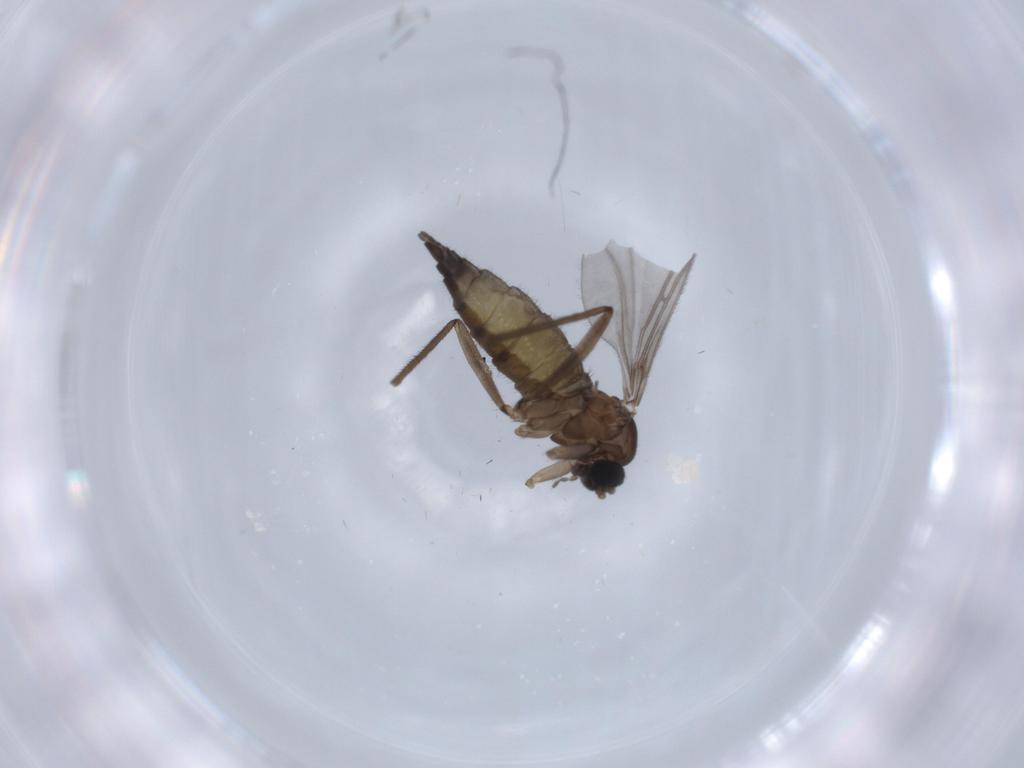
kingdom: Animalia
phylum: Arthropoda
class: Insecta
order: Diptera
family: Sciaridae
